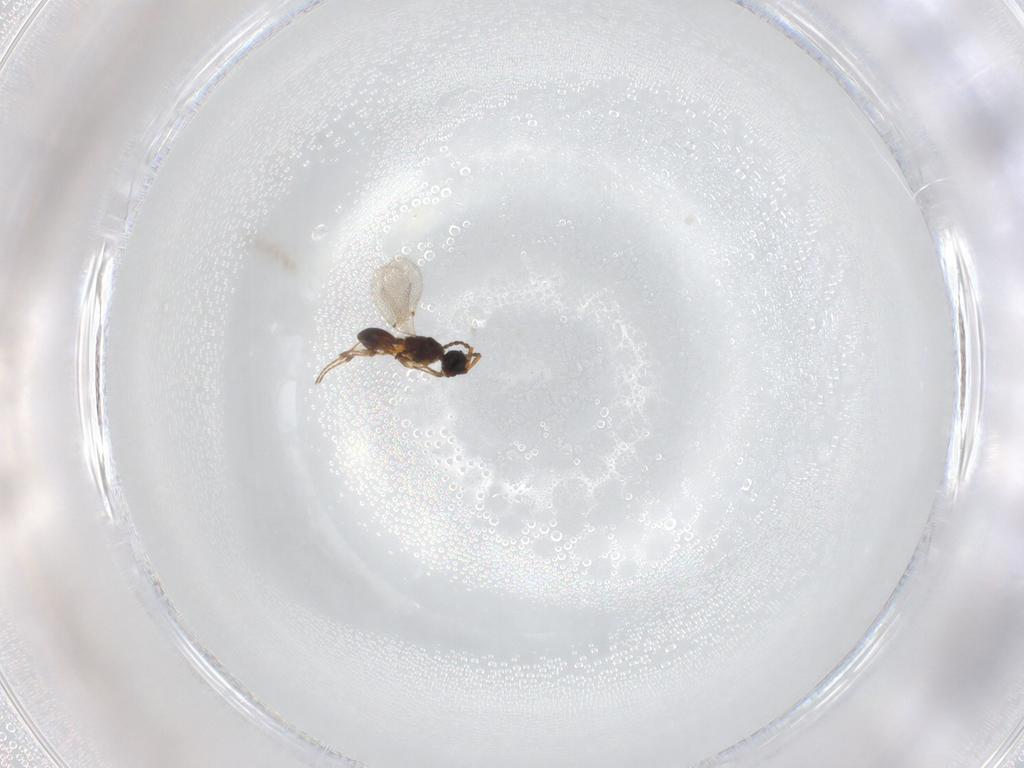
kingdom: Animalia
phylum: Arthropoda
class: Insecta
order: Hymenoptera
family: Diapriidae
